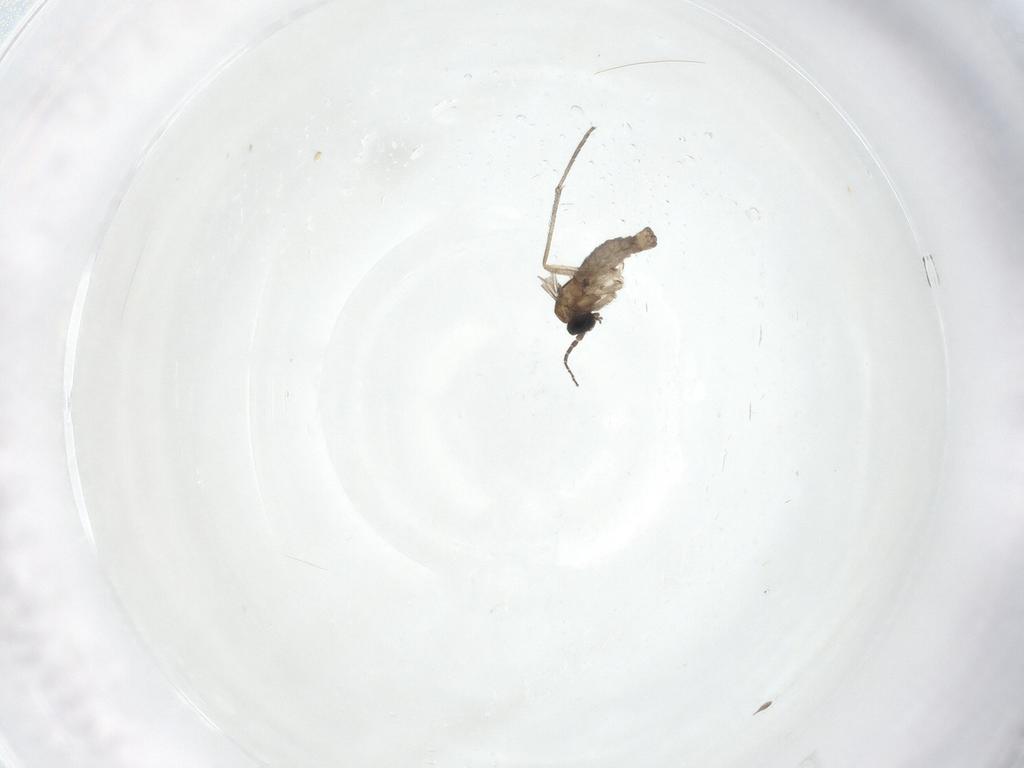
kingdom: Animalia
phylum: Arthropoda
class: Insecta
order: Diptera
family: Sciaridae
